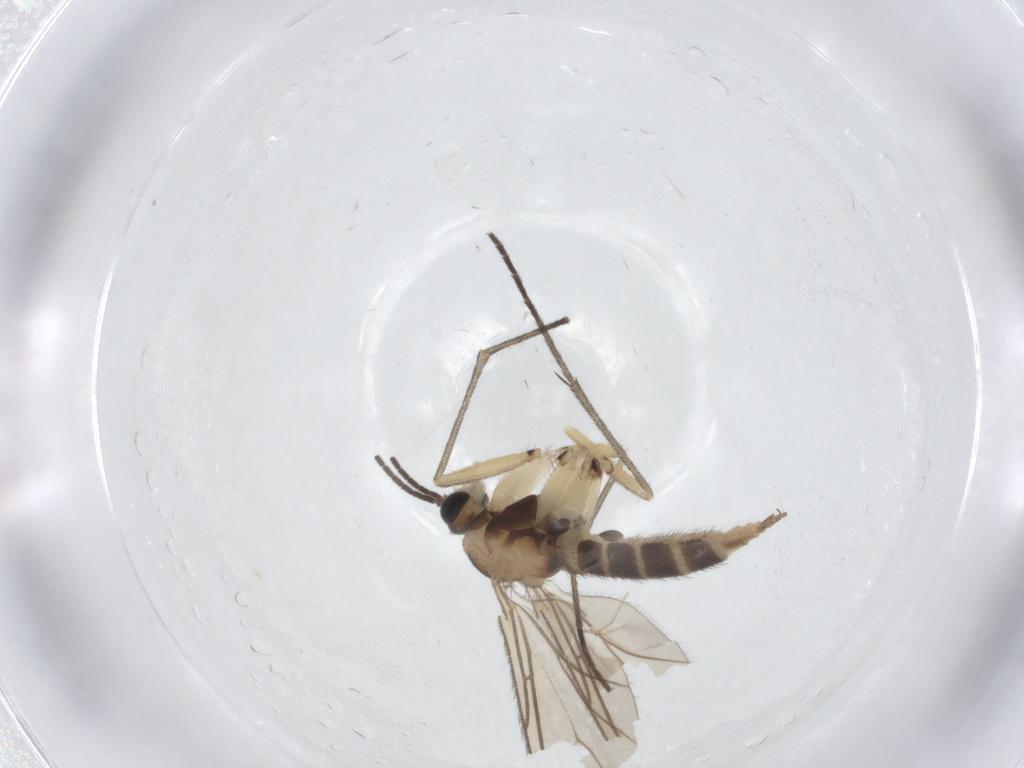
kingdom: Animalia
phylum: Arthropoda
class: Insecta
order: Diptera
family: Sciaridae
